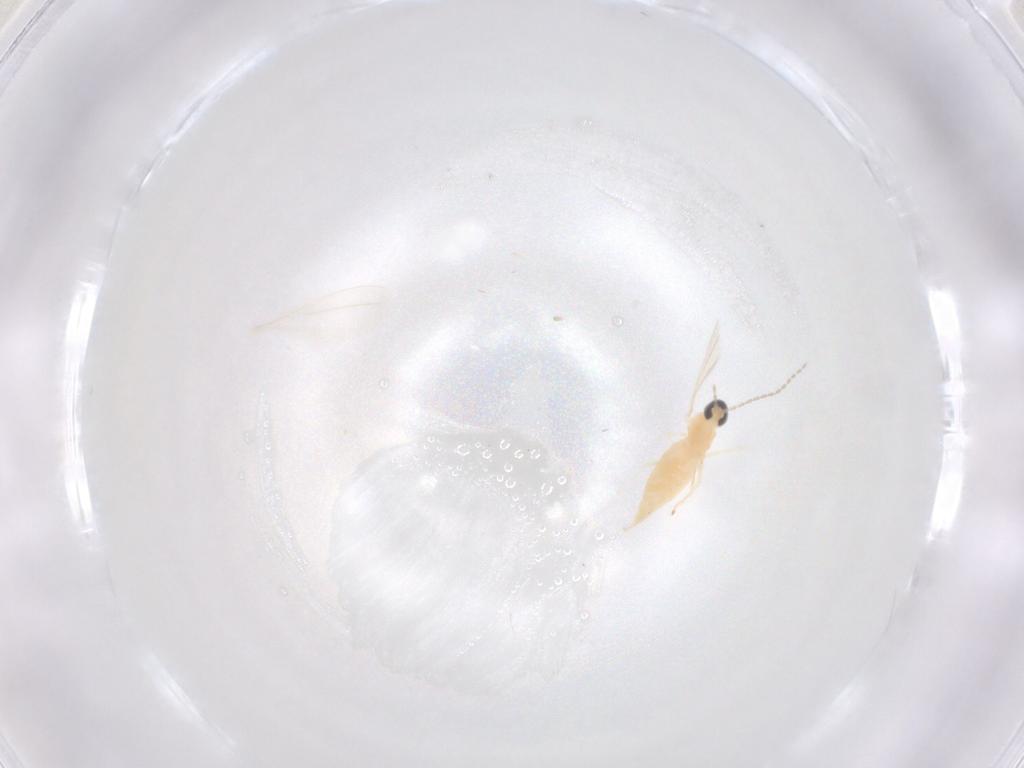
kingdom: Animalia
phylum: Arthropoda
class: Insecta
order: Diptera
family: Cecidomyiidae
